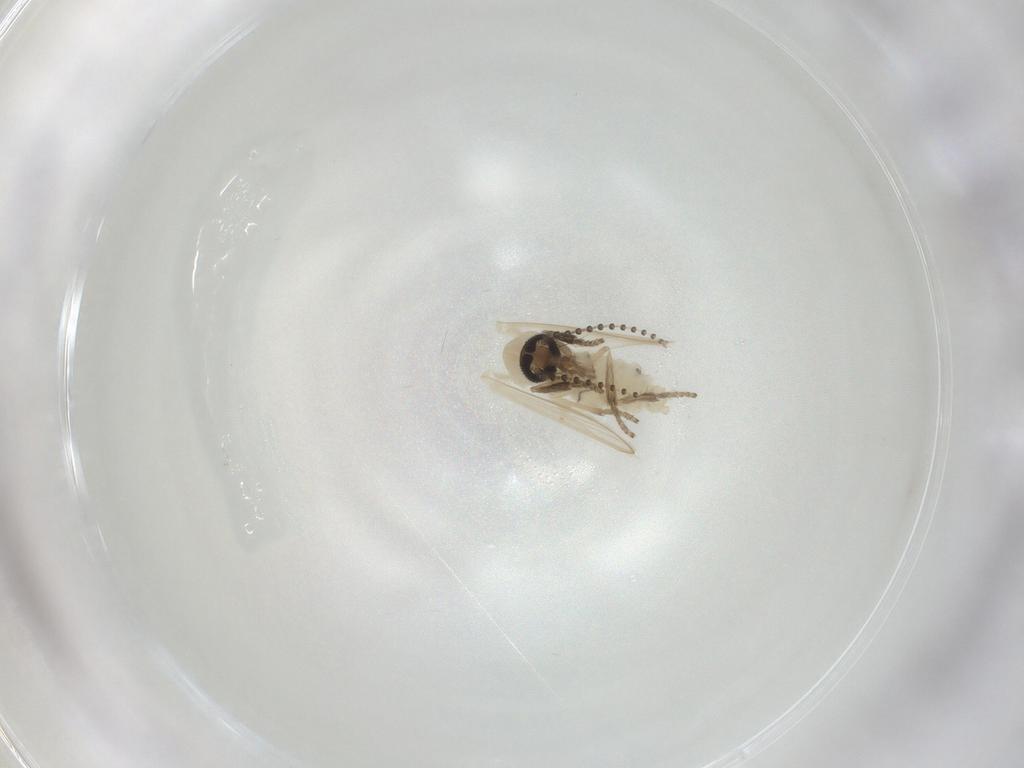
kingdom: Animalia
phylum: Arthropoda
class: Insecta
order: Diptera
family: Psychodidae
